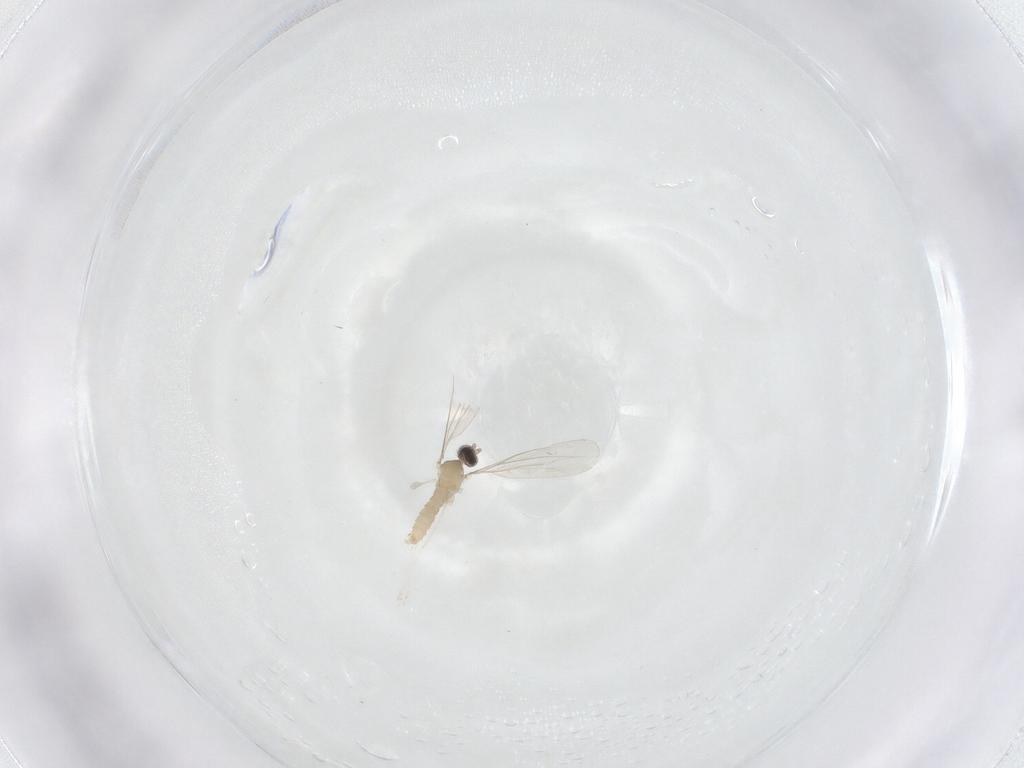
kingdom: Animalia
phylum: Arthropoda
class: Insecta
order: Diptera
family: Cecidomyiidae
